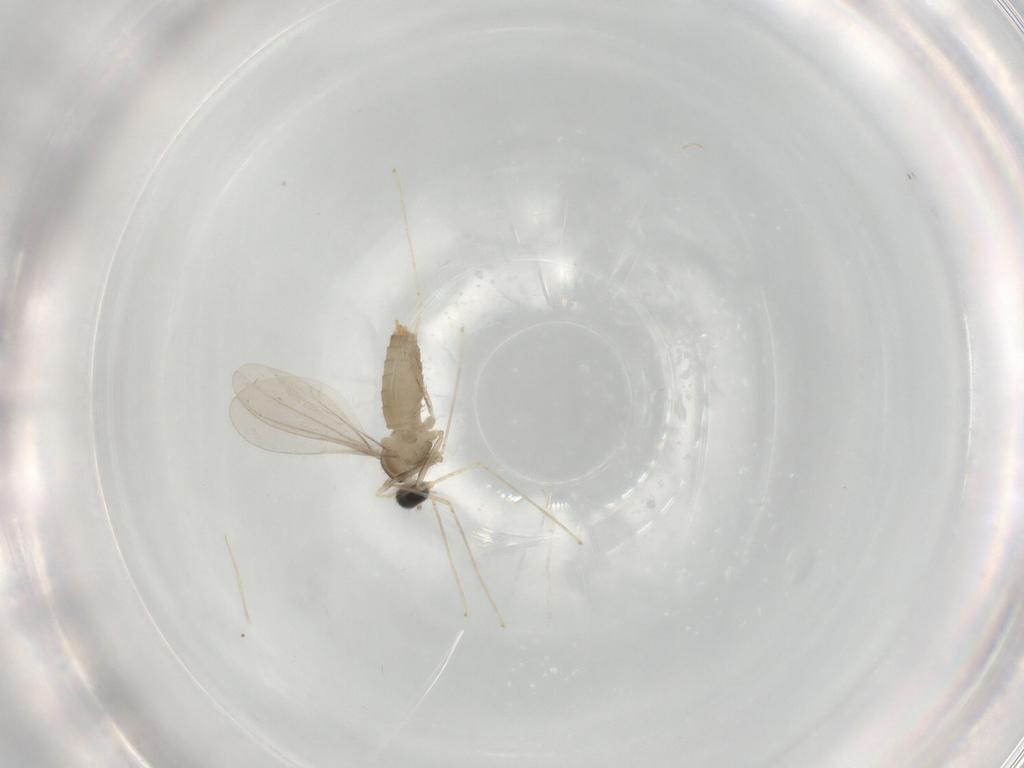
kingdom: Animalia
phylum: Arthropoda
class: Insecta
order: Diptera
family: Cecidomyiidae
